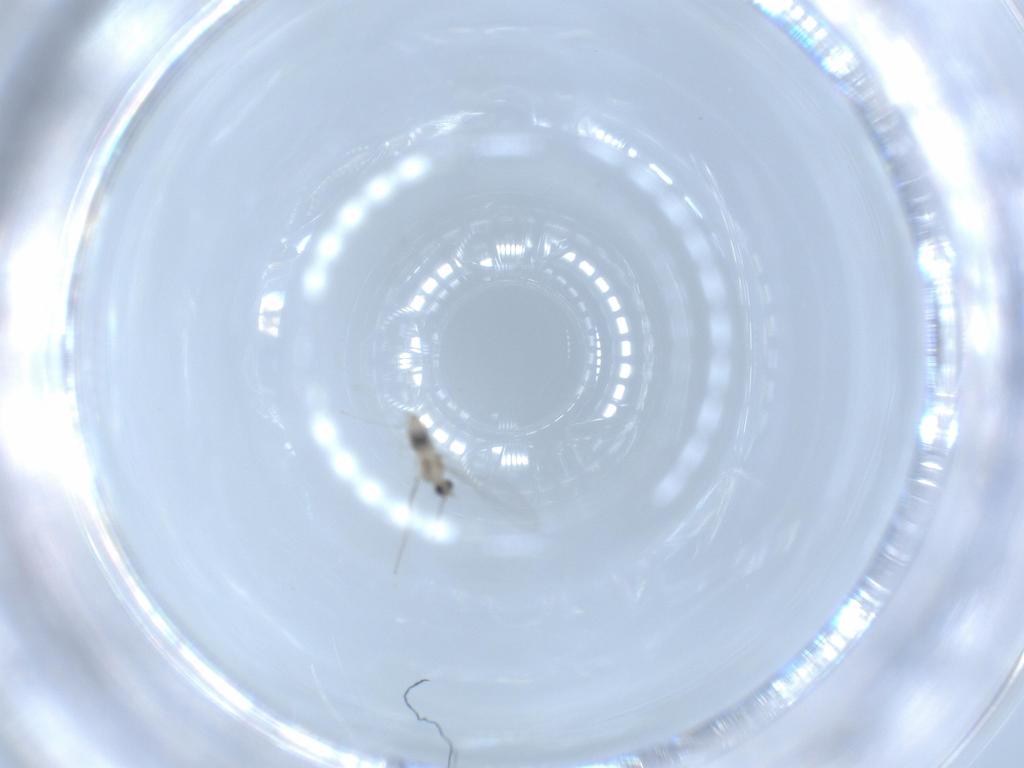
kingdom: Animalia
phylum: Arthropoda
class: Insecta
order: Diptera
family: Cecidomyiidae
